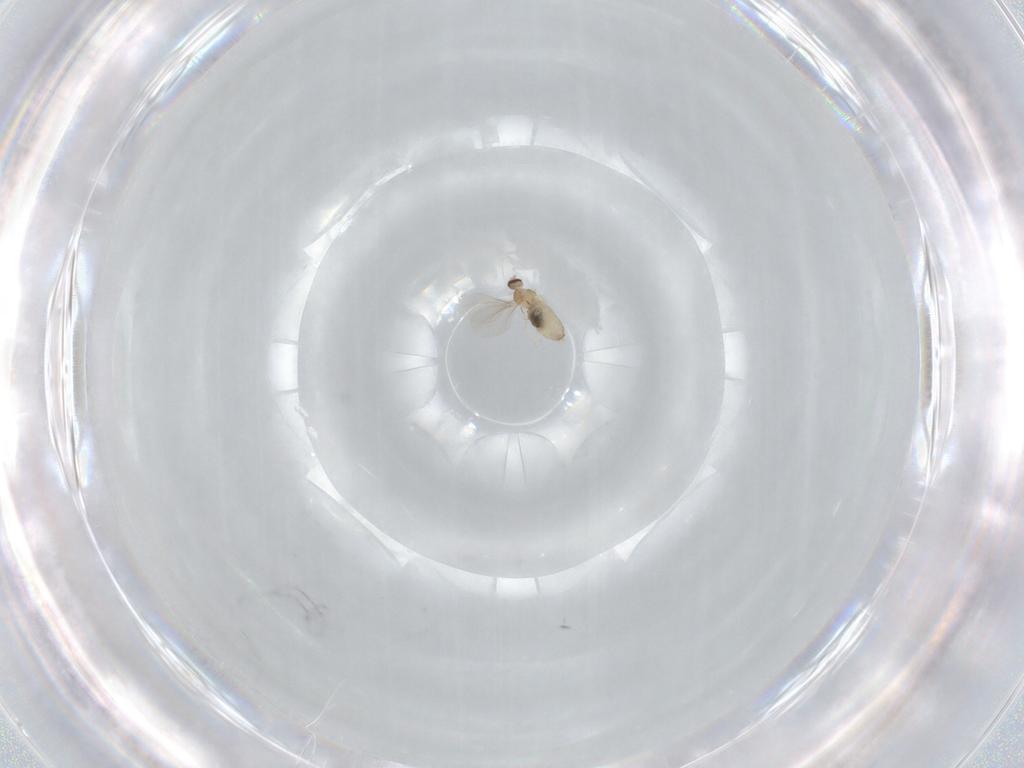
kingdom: Animalia
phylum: Arthropoda
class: Insecta
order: Diptera
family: Cecidomyiidae
